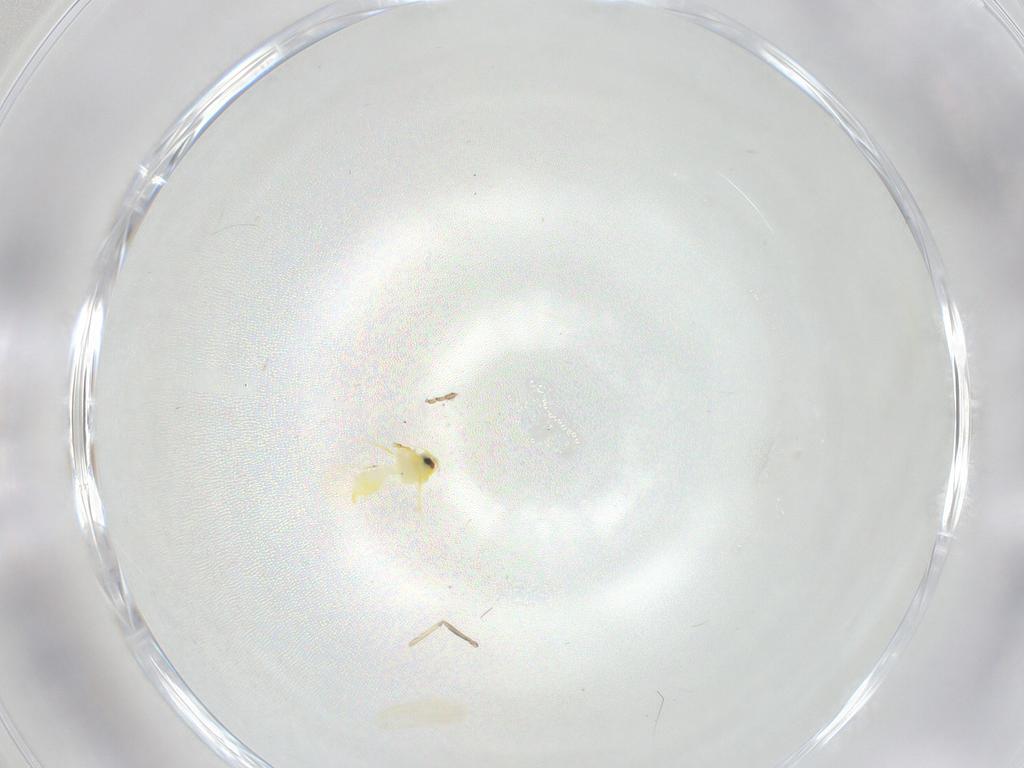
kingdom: Animalia
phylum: Arthropoda
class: Insecta
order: Hemiptera
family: Aleyrodidae
